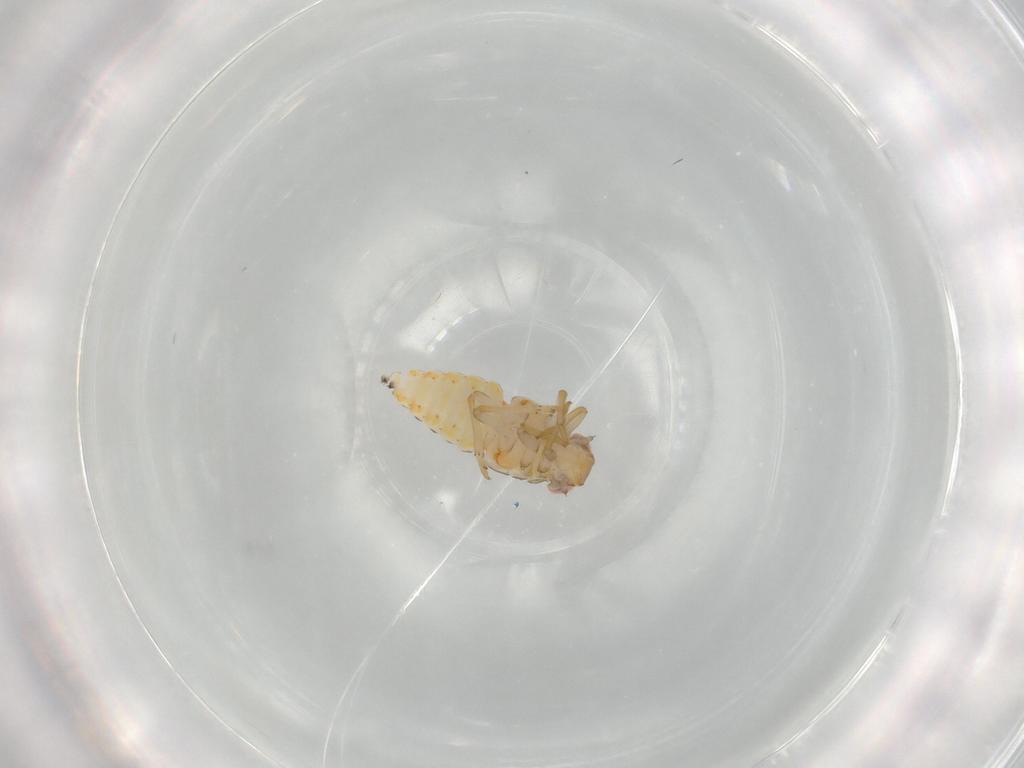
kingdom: Animalia
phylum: Arthropoda
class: Insecta
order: Hemiptera
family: Issidae
